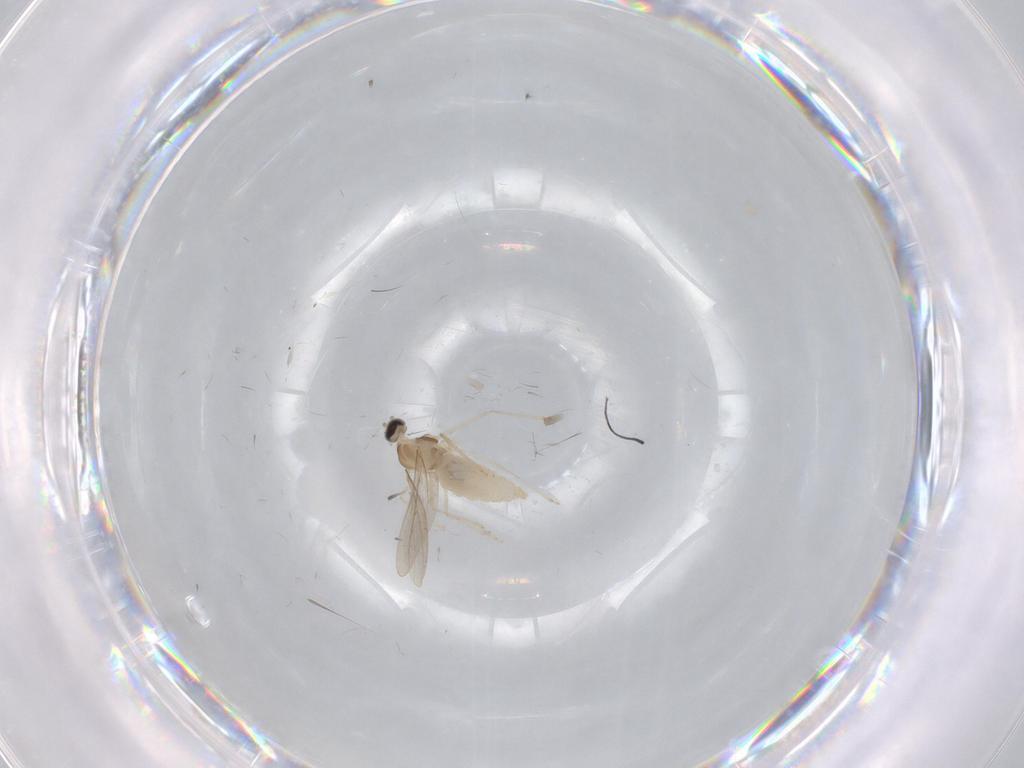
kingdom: Animalia
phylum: Arthropoda
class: Insecta
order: Diptera
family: Cecidomyiidae
